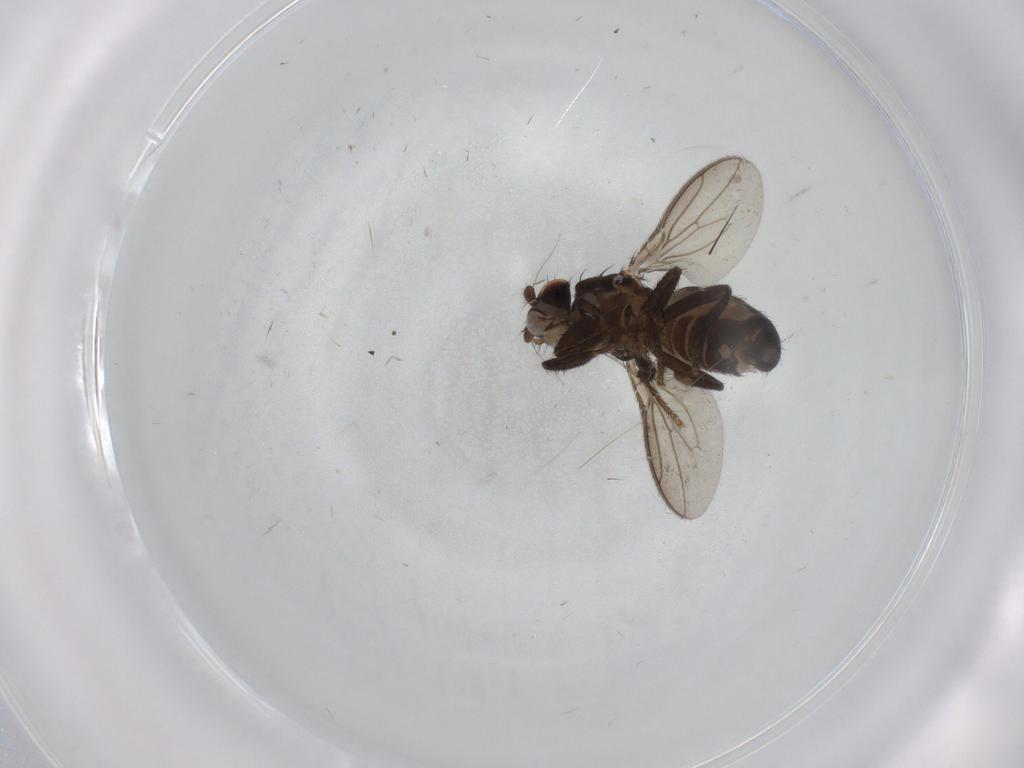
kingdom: Animalia
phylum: Arthropoda
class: Insecta
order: Diptera
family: Sphaeroceridae
